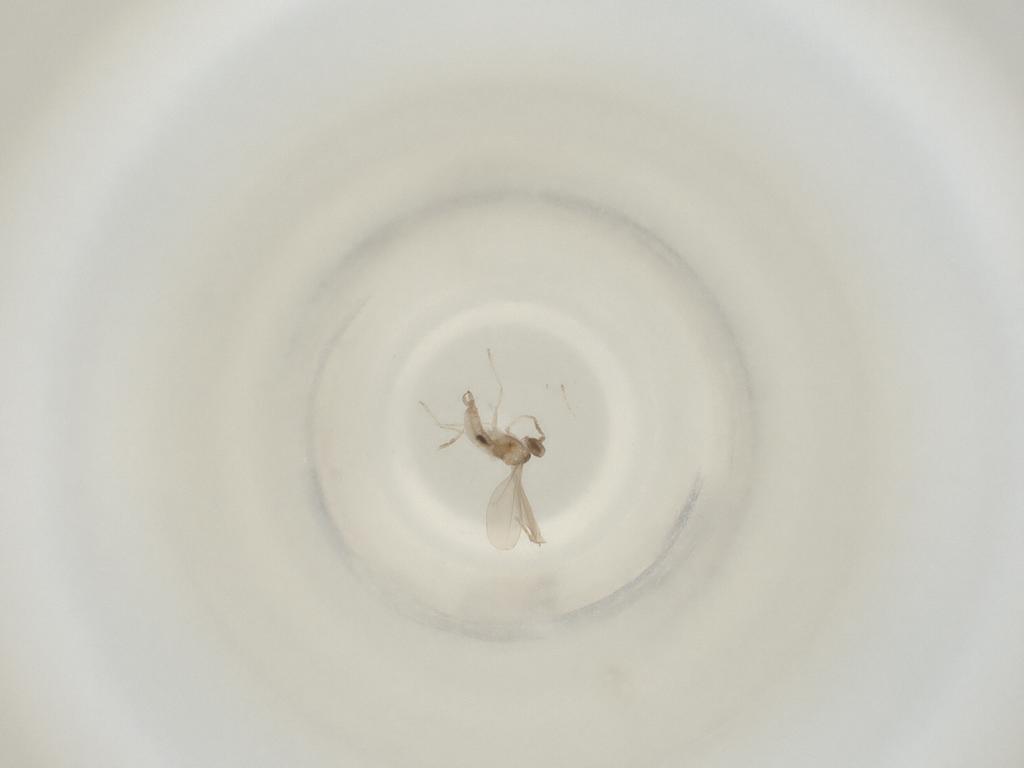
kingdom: Animalia
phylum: Arthropoda
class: Insecta
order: Diptera
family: Cecidomyiidae
